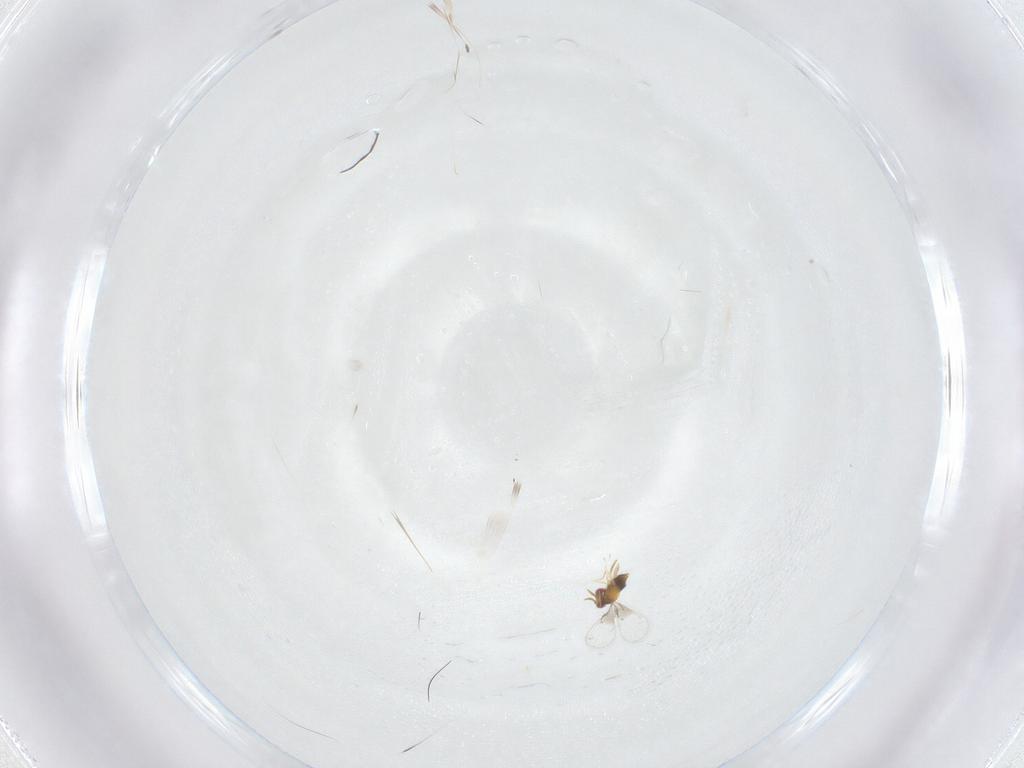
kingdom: Animalia
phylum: Arthropoda
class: Insecta
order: Hymenoptera
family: Trichogrammatidae
